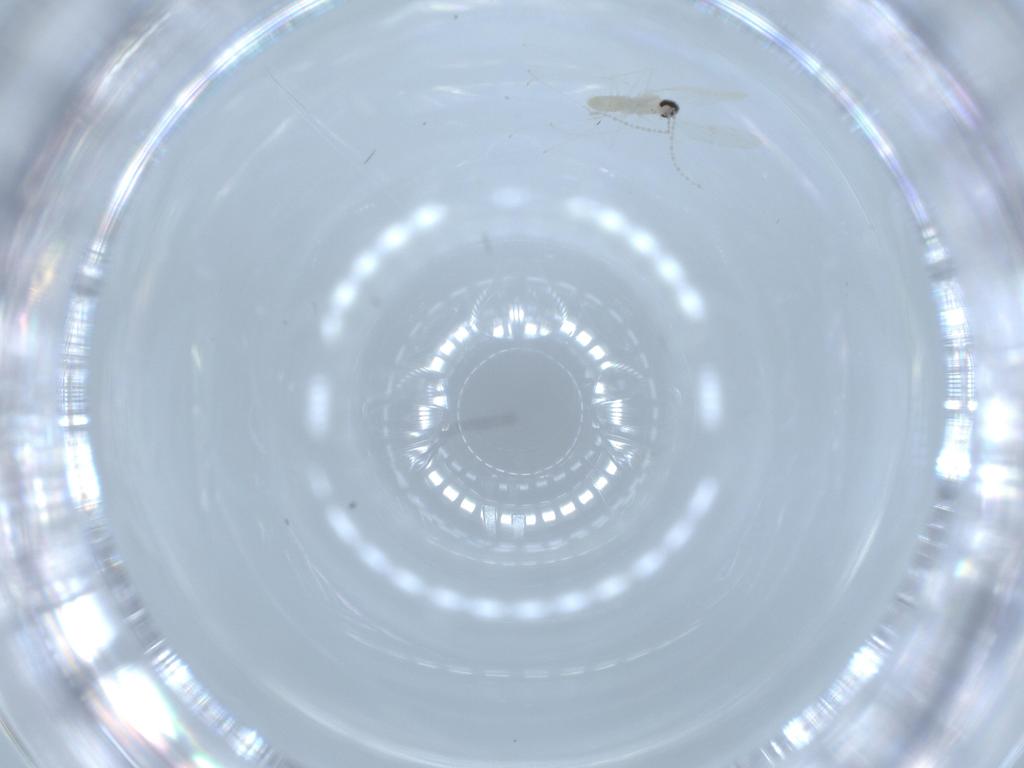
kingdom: Animalia
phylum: Arthropoda
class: Insecta
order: Diptera
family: Cecidomyiidae
